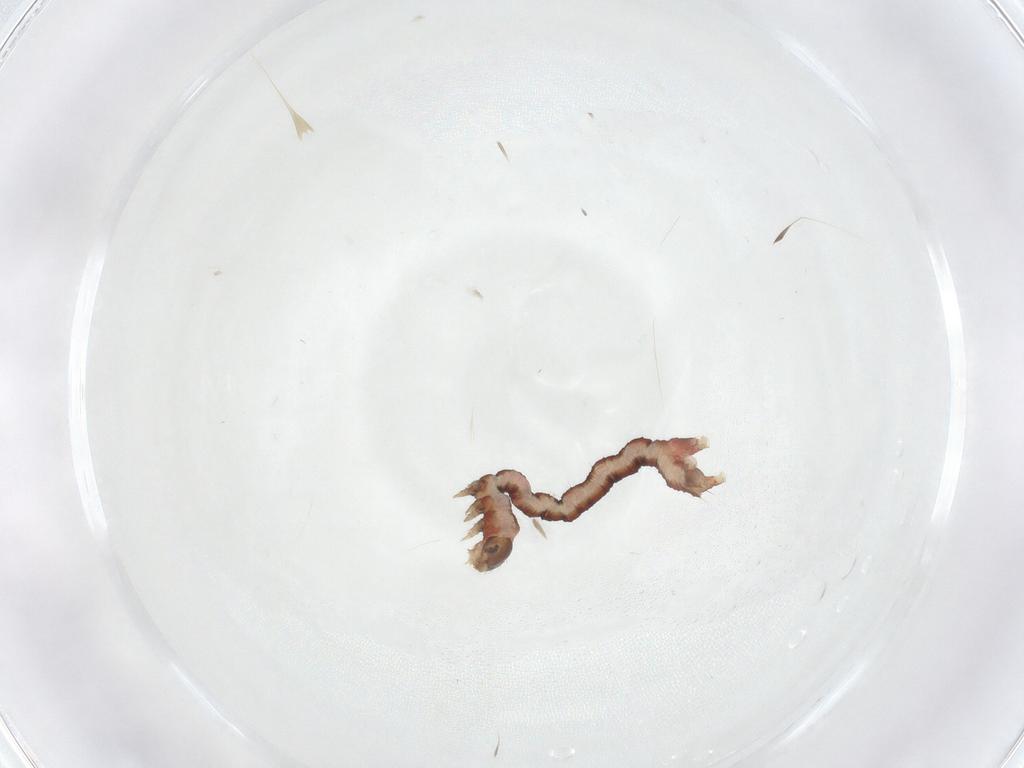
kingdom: Animalia
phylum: Arthropoda
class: Insecta
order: Lepidoptera
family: Geometridae
